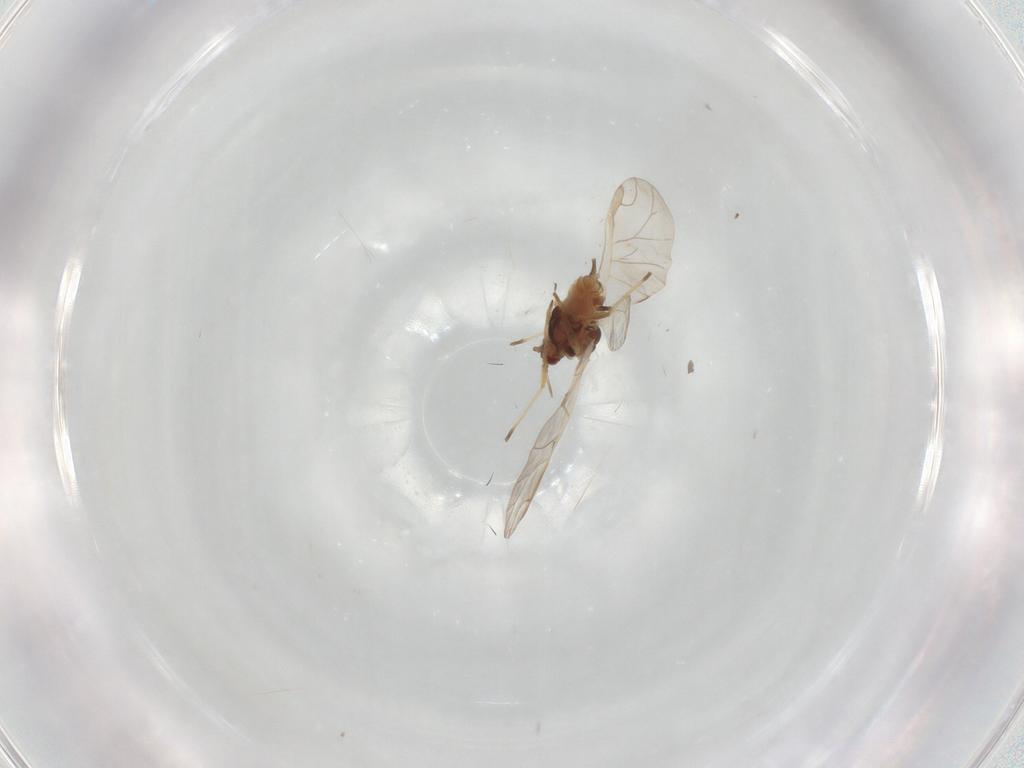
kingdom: Animalia
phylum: Arthropoda
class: Insecta
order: Hemiptera
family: Aphididae
